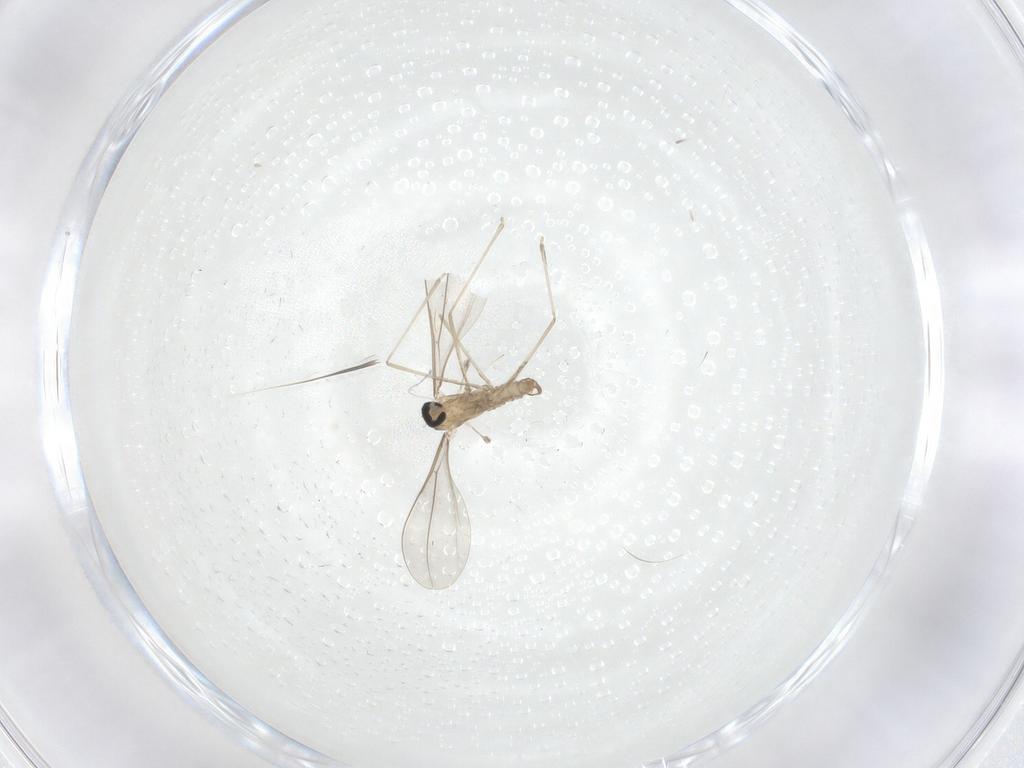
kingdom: Animalia
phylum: Arthropoda
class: Insecta
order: Diptera
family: Cecidomyiidae
